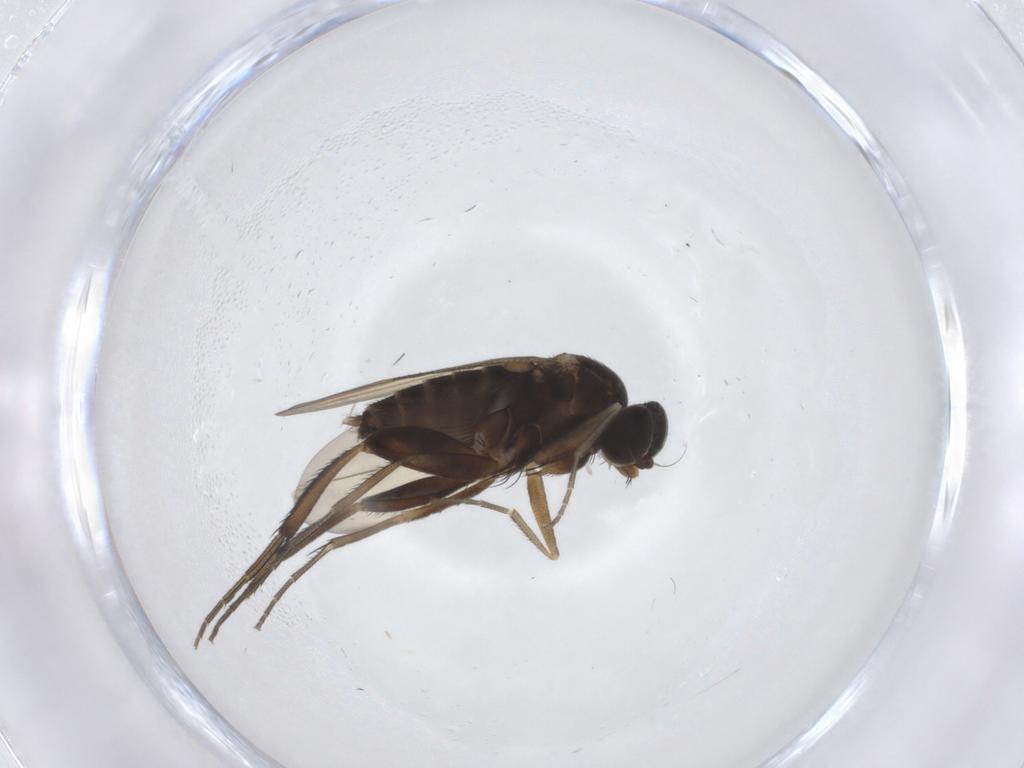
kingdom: Animalia
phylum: Arthropoda
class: Insecta
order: Diptera
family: Phoridae
